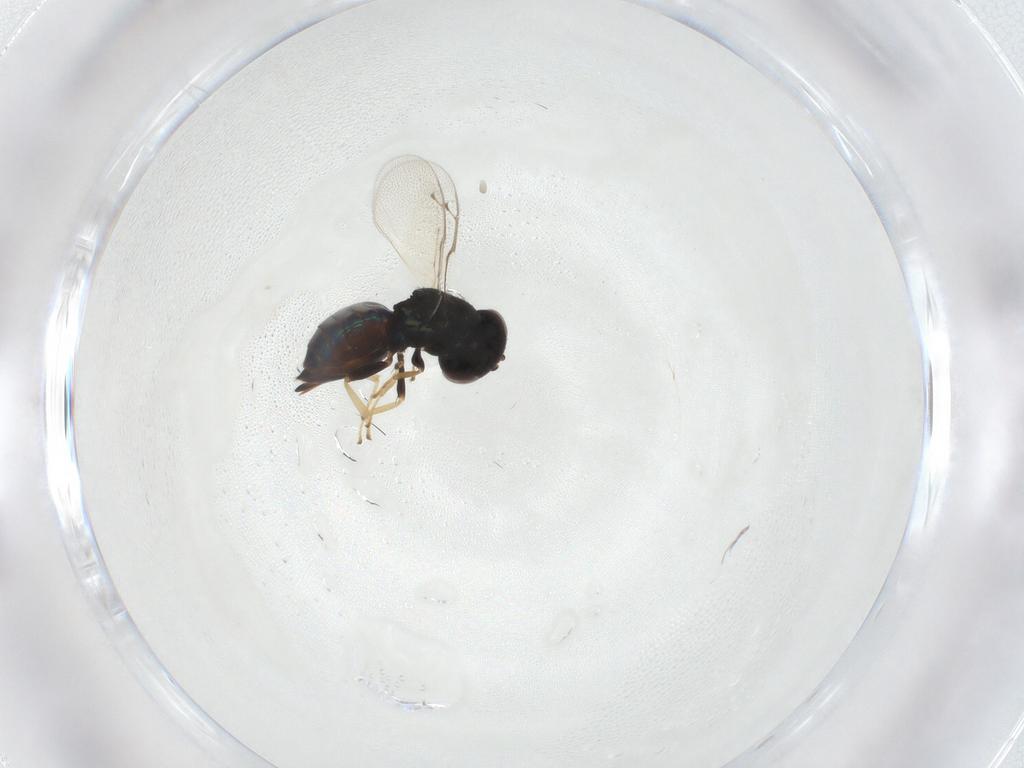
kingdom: Animalia
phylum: Arthropoda
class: Insecta
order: Hymenoptera
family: Pteromalidae
